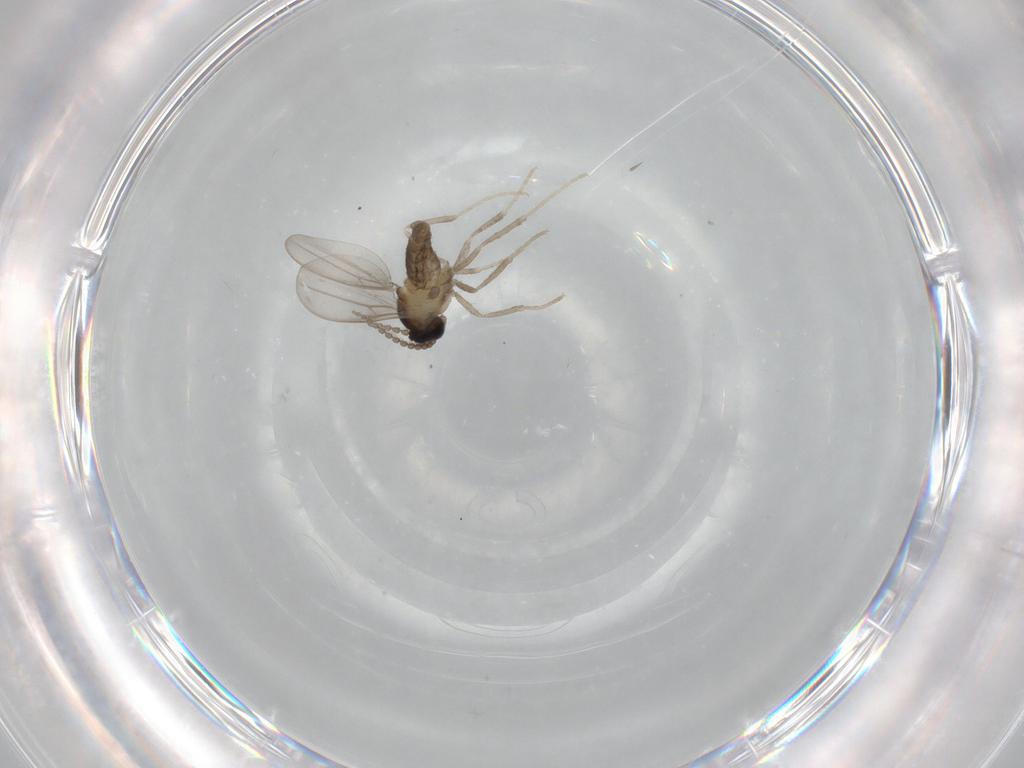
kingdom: Animalia
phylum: Arthropoda
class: Insecta
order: Diptera
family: Cecidomyiidae
